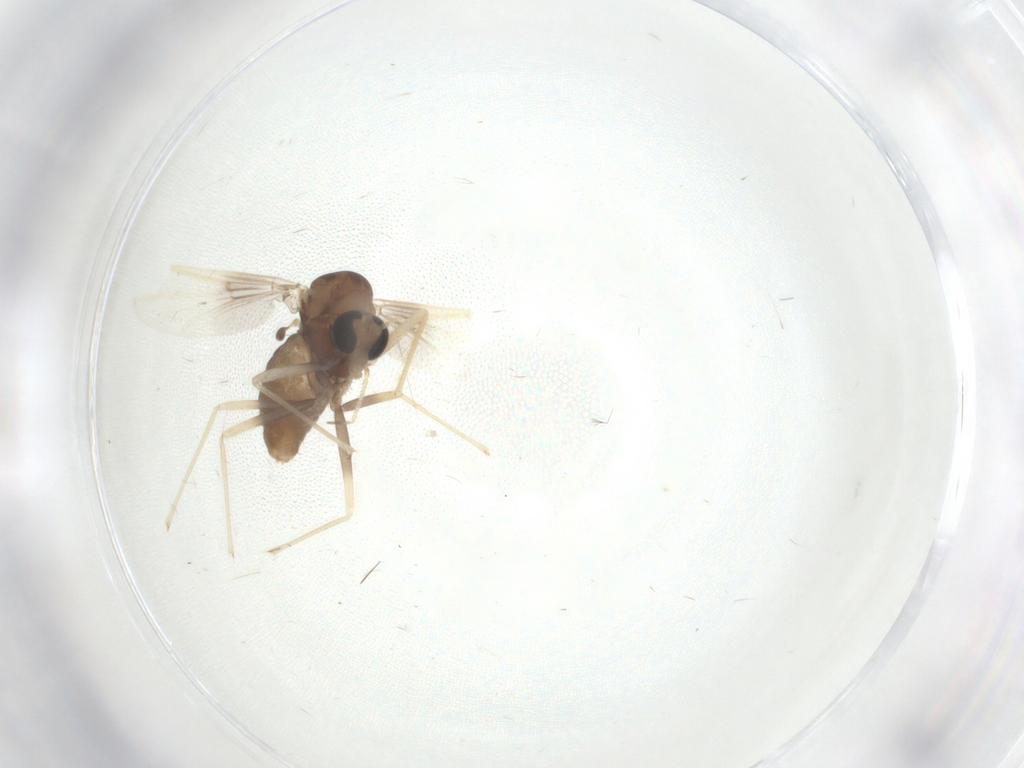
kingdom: Animalia
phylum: Arthropoda
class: Insecta
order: Diptera
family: Chironomidae
